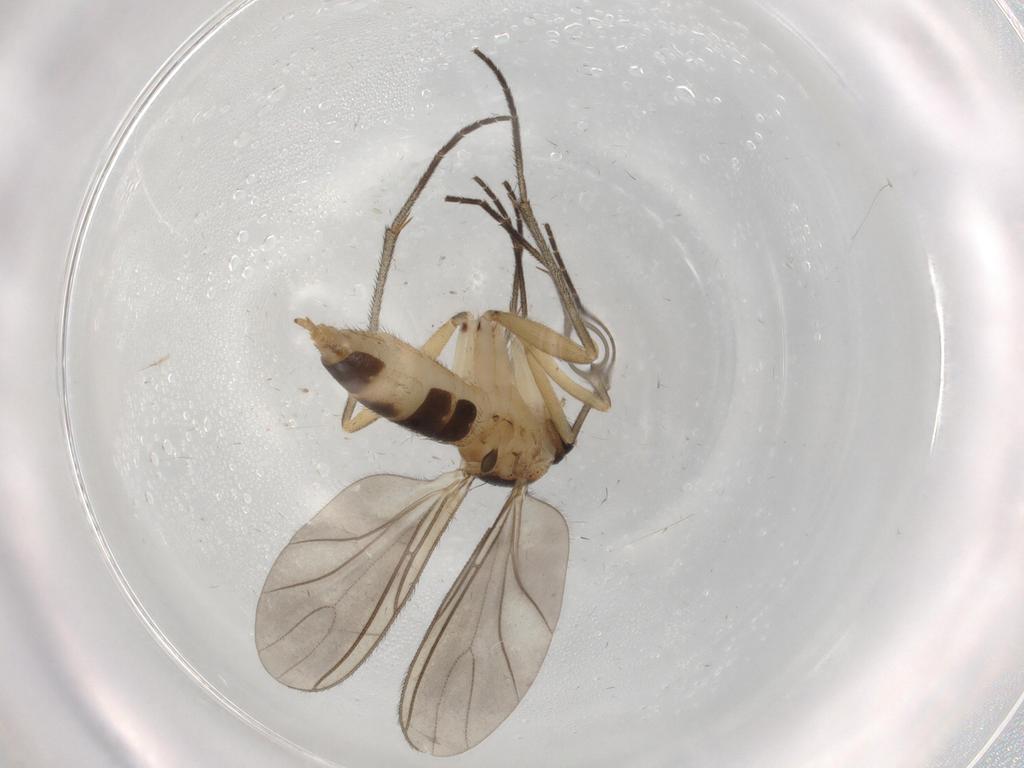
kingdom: Animalia
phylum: Arthropoda
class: Insecta
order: Diptera
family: Sciaridae
